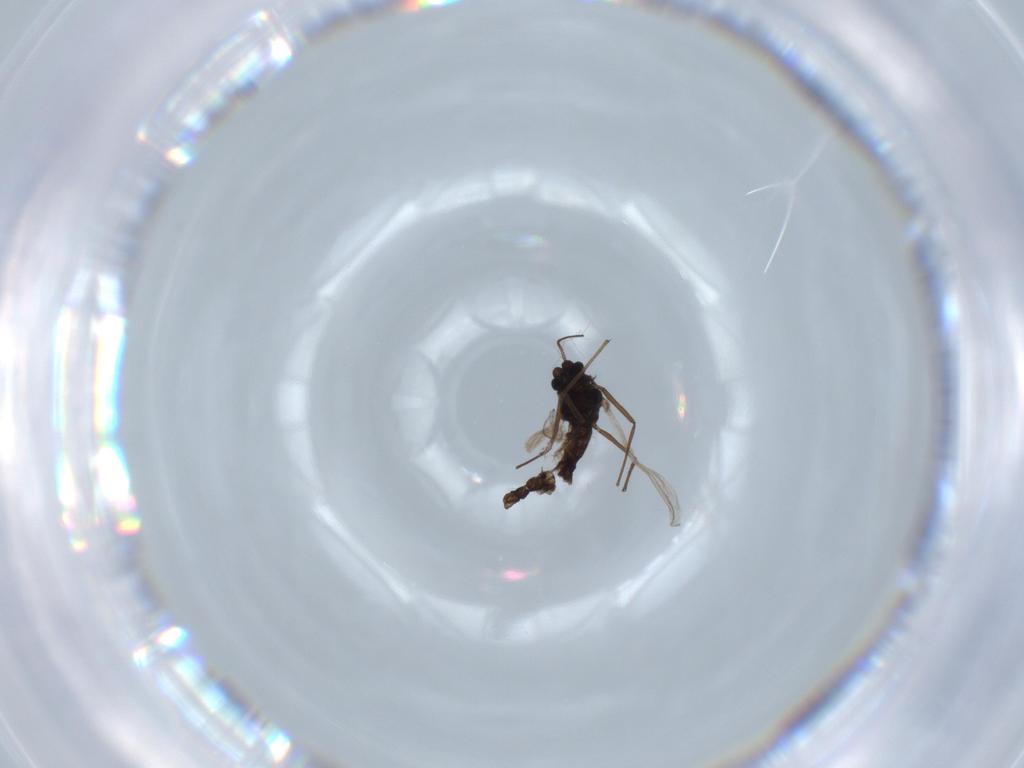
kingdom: Animalia
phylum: Arthropoda
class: Insecta
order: Diptera
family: Chironomidae
